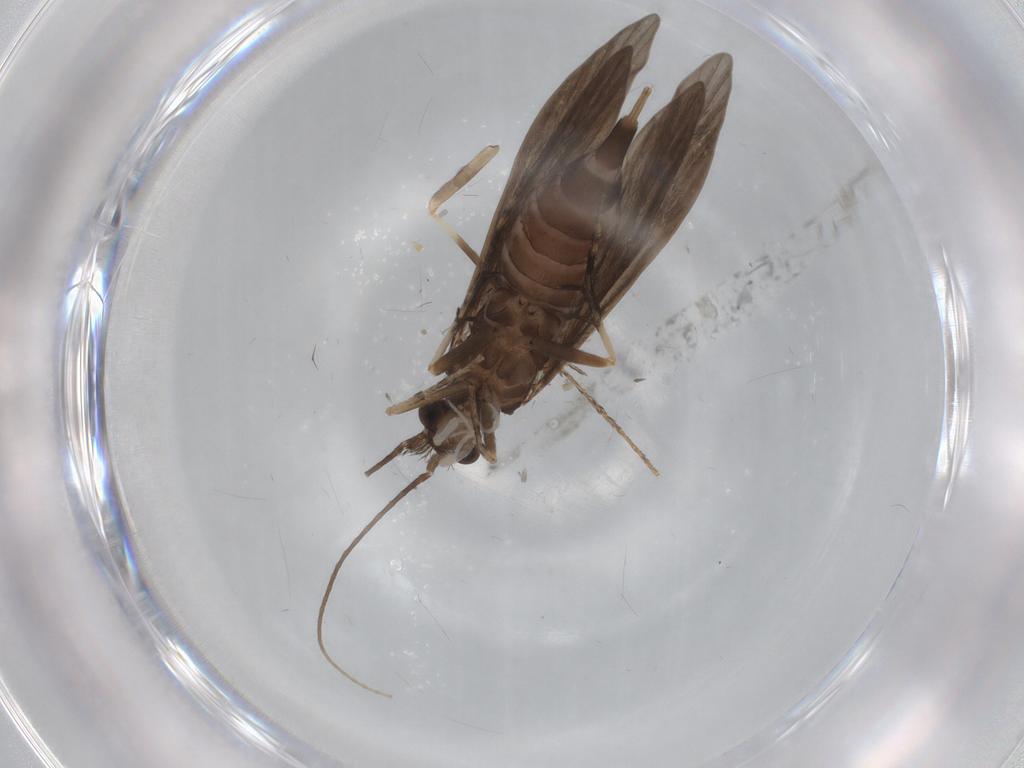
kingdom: Animalia
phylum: Arthropoda
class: Insecta
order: Trichoptera
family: Xiphocentronidae
